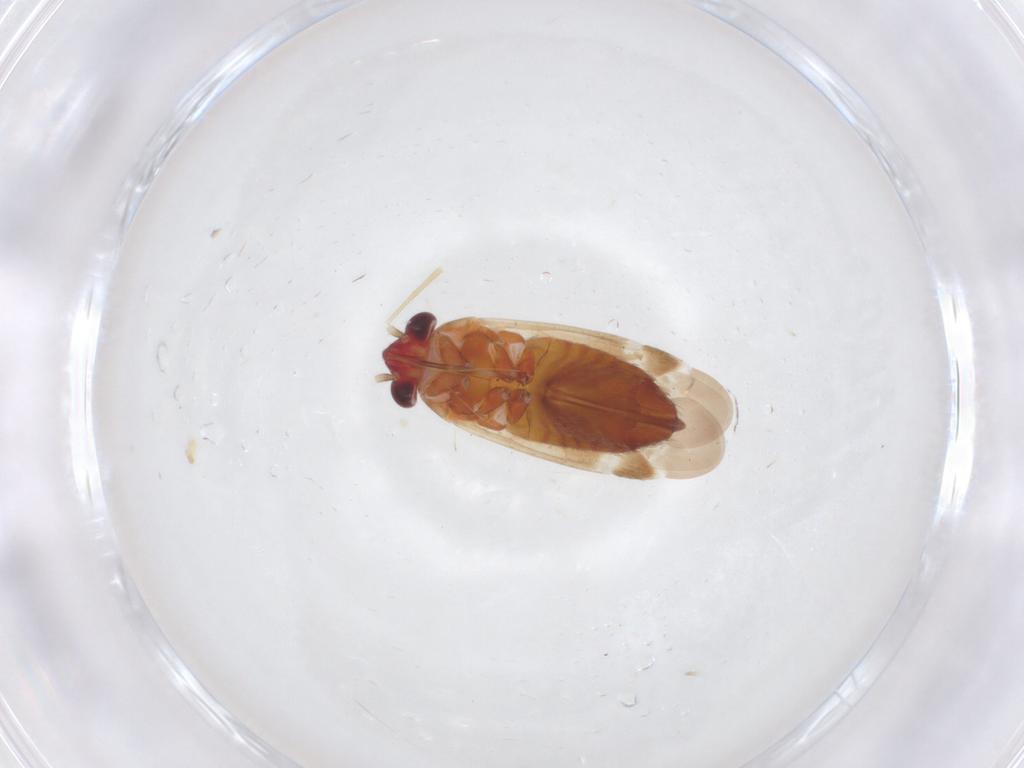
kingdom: Animalia
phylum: Arthropoda
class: Insecta
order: Hemiptera
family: Miridae
